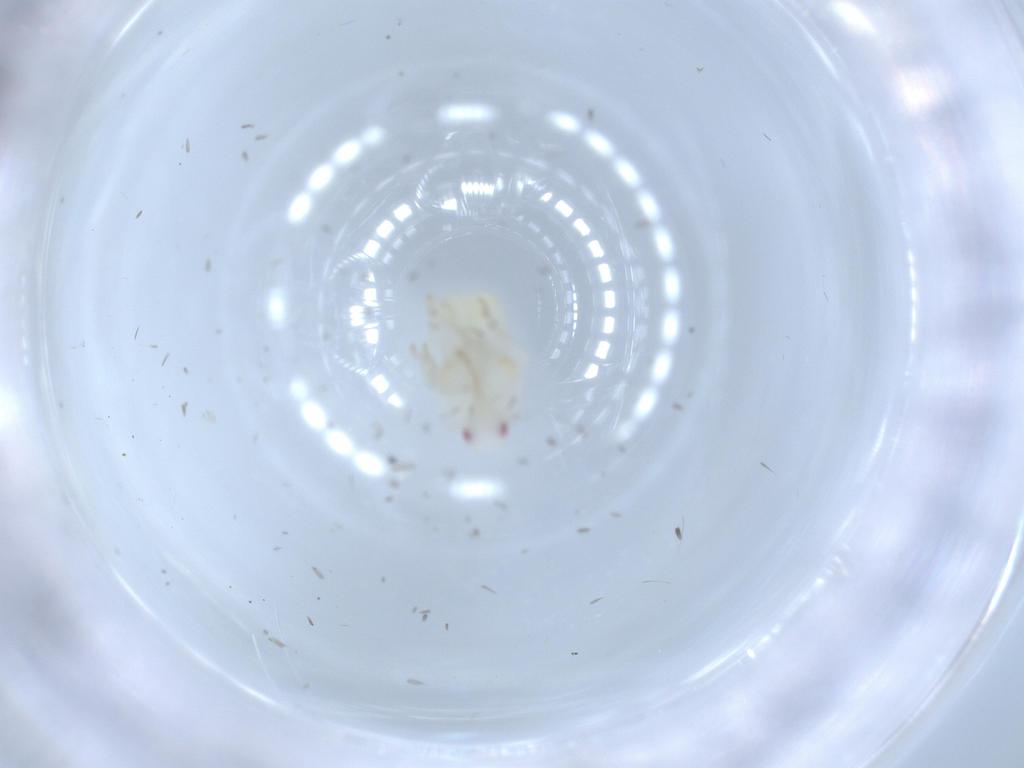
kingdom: Animalia
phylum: Arthropoda
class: Insecta
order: Hemiptera
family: Flatidae
